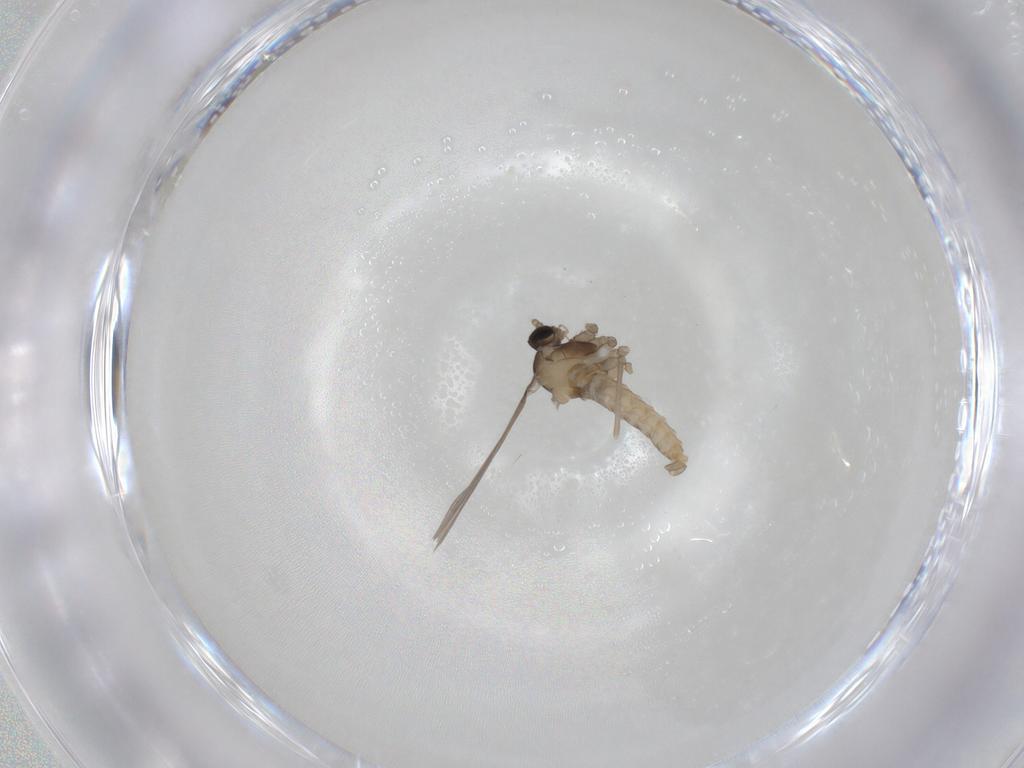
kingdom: Animalia
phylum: Arthropoda
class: Insecta
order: Diptera
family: Cecidomyiidae
